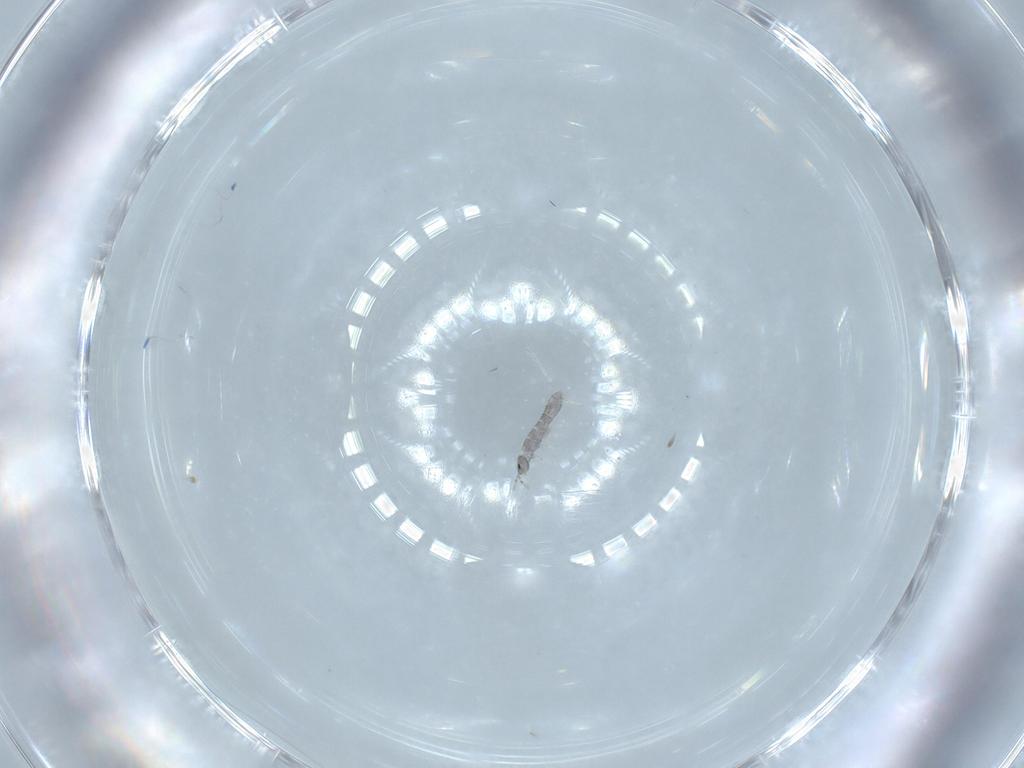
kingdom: Animalia
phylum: Arthropoda
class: Collembola
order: Entomobryomorpha
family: Isotomidae
